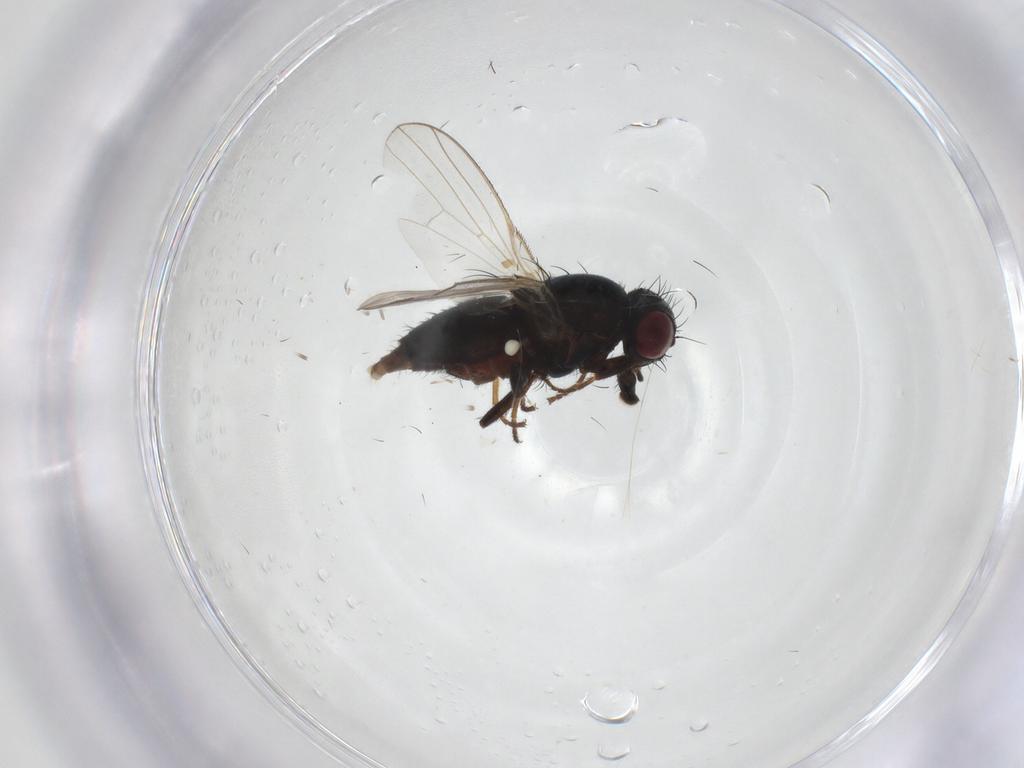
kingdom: Animalia
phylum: Arthropoda
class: Insecta
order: Diptera
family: Carnidae
